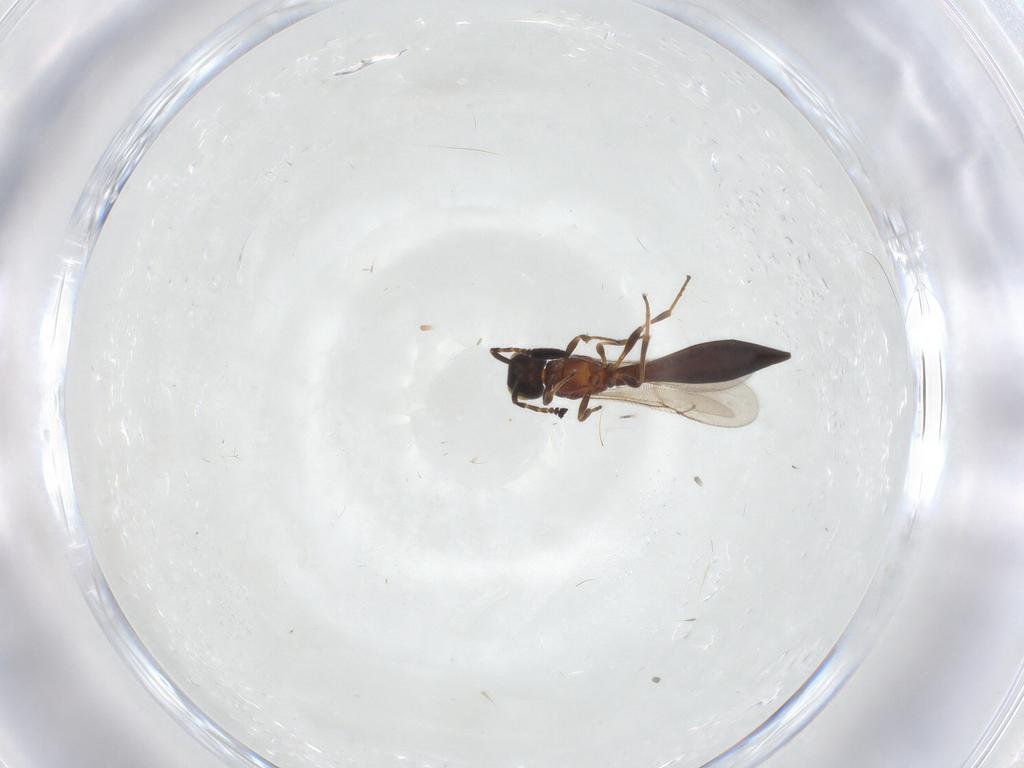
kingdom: Animalia
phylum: Arthropoda
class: Insecta
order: Hymenoptera
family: Scelionidae
